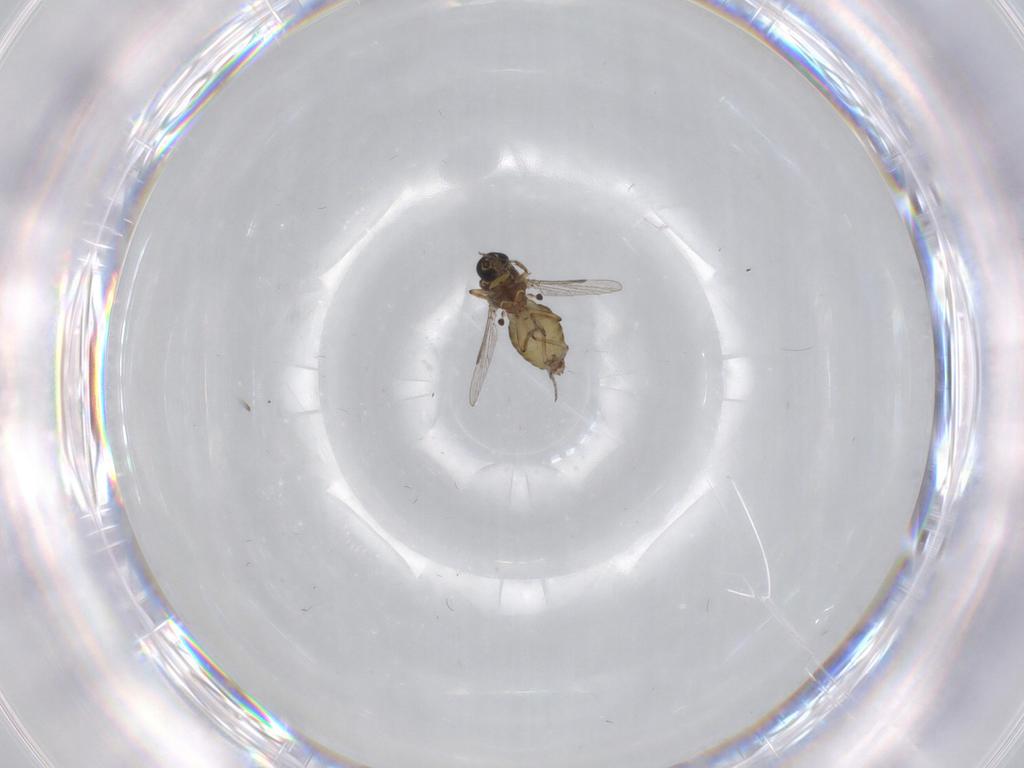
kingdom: Animalia
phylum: Arthropoda
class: Insecta
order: Diptera
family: Ceratopogonidae
